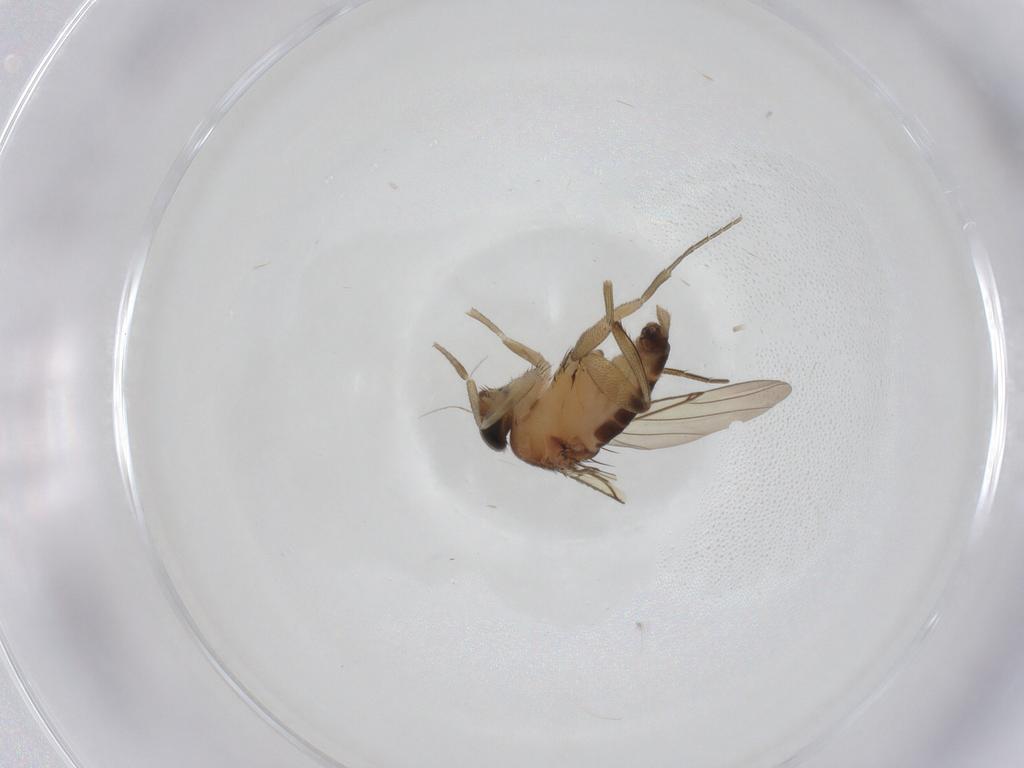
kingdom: Animalia
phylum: Arthropoda
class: Insecta
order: Diptera
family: Phoridae
